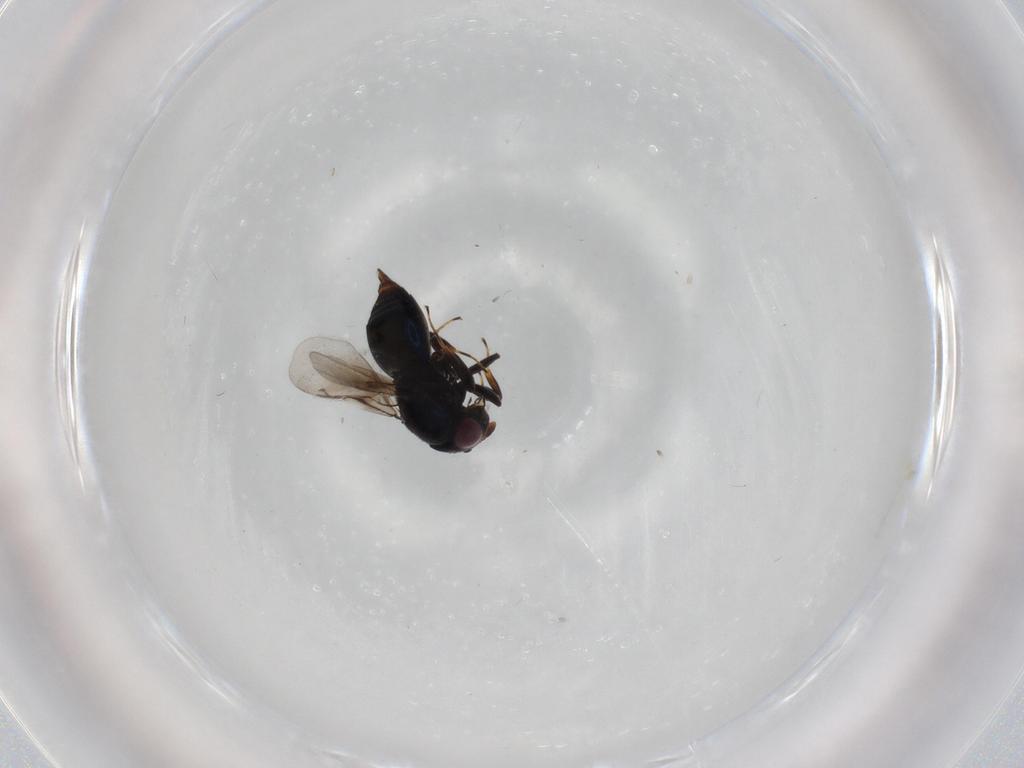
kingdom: Animalia
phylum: Arthropoda
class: Insecta
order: Hymenoptera
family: Encyrtidae
